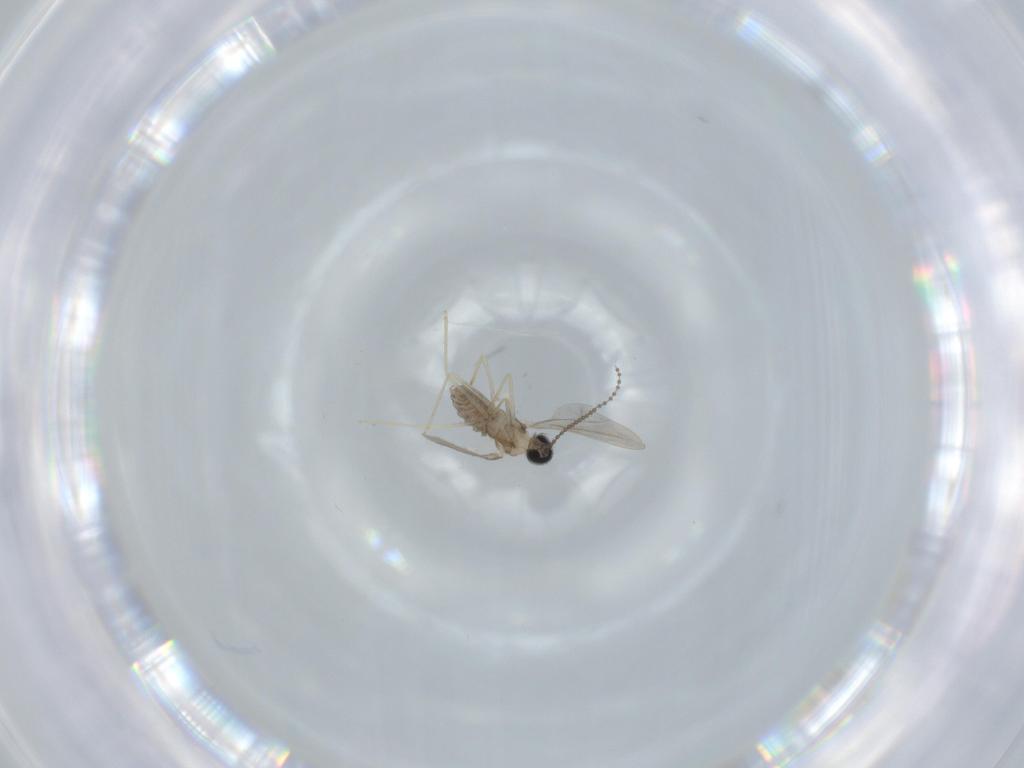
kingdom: Animalia
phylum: Arthropoda
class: Insecta
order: Diptera
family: Cecidomyiidae
